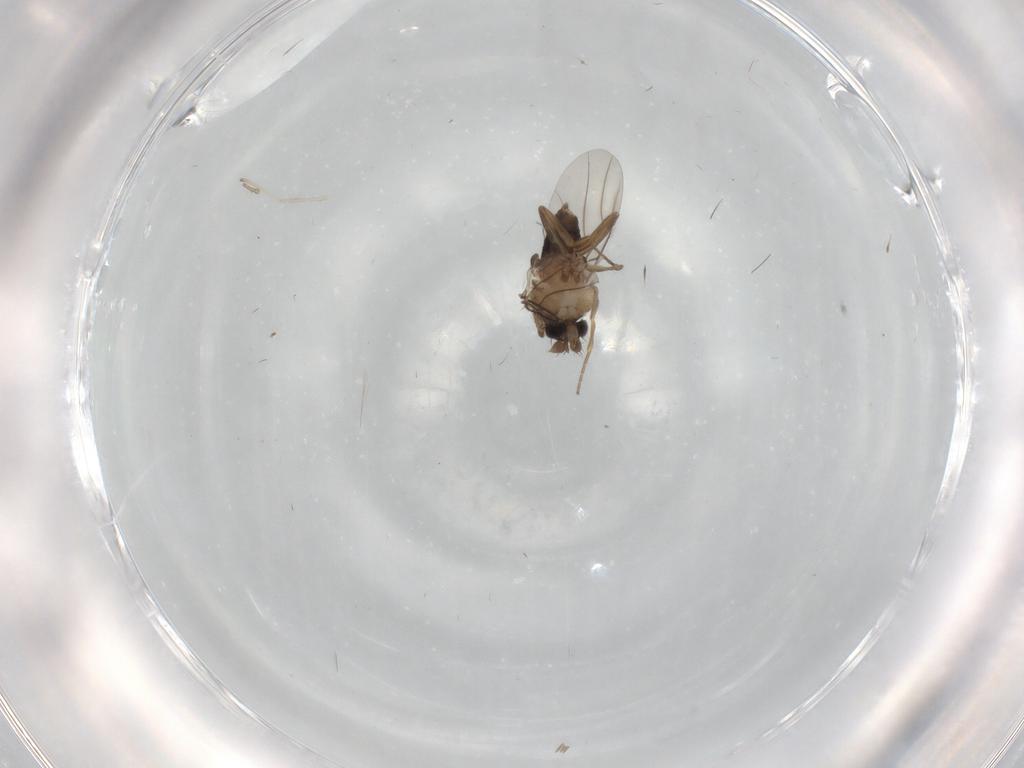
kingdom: Animalia
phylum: Arthropoda
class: Insecta
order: Diptera
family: Cecidomyiidae
